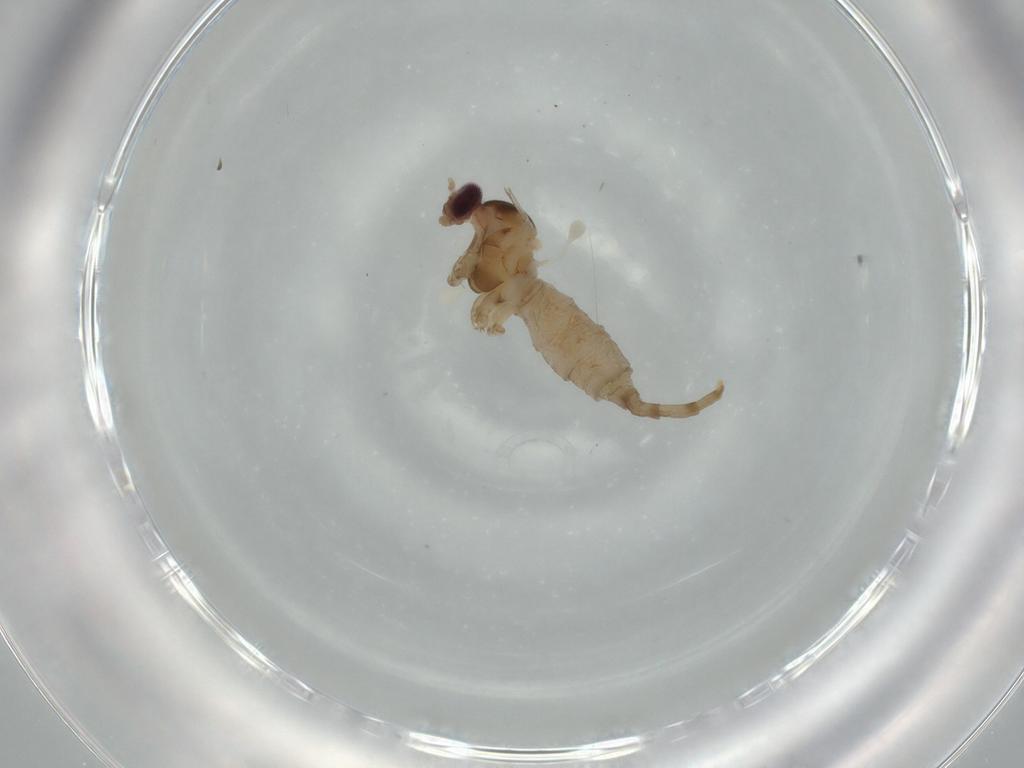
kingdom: Animalia
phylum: Arthropoda
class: Insecta
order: Diptera
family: Cecidomyiidae
